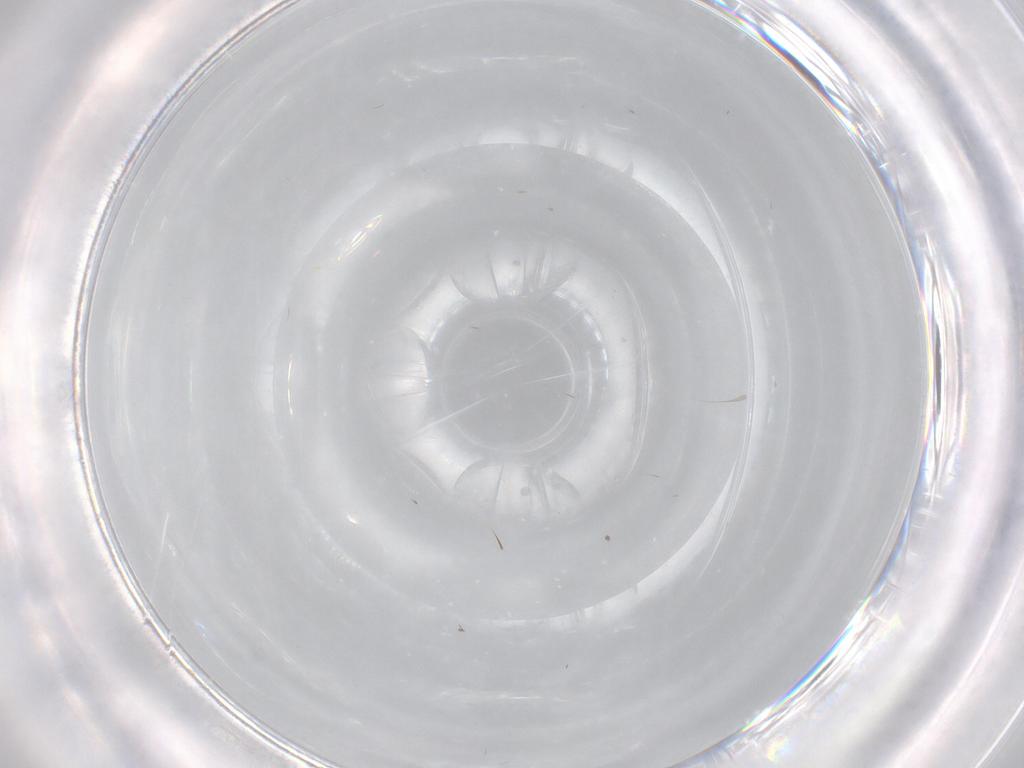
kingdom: Animalia
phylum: Arthropoda
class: Insecta
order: Diptera
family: Cecidomyiidae
